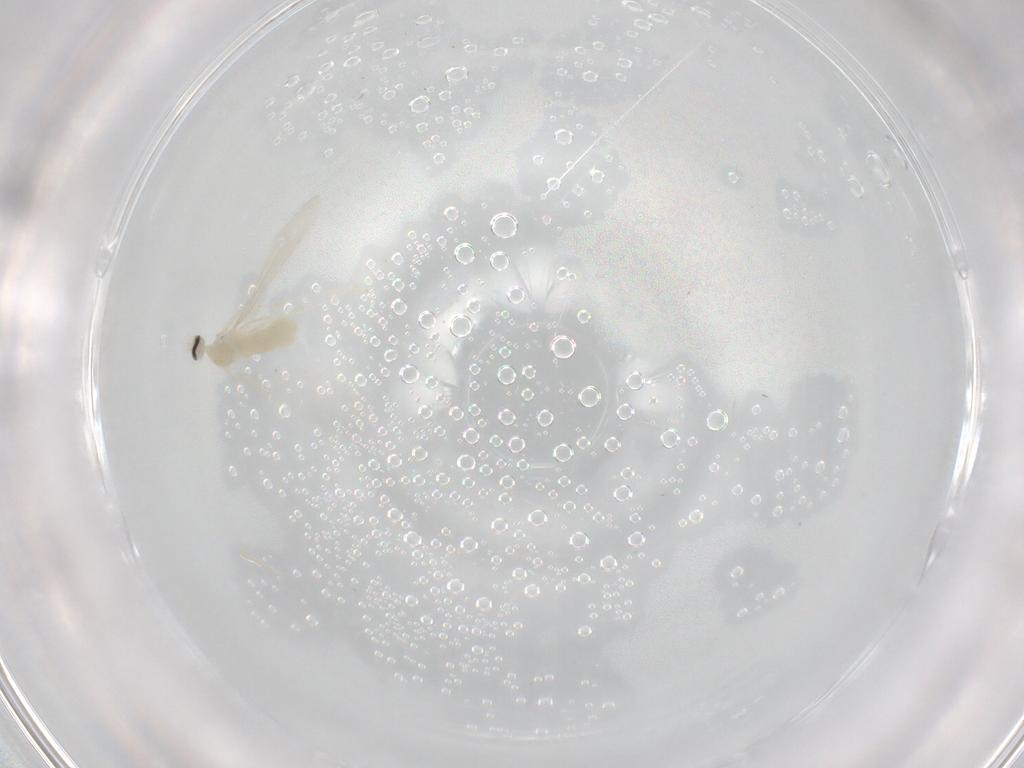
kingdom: Animalia
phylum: Arthropoda
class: Insecta
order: Diptera
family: Cecidomyiidae
